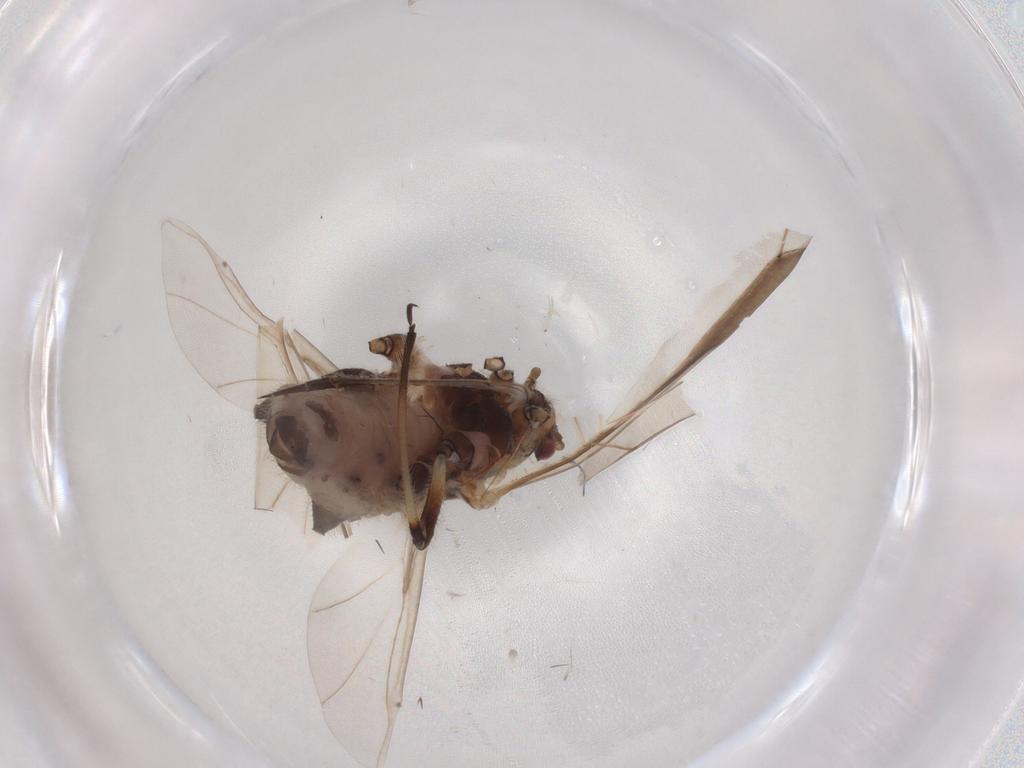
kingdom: Animalia
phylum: Arthropoda
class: Insecta
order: Hemiptera
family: Aphididae
